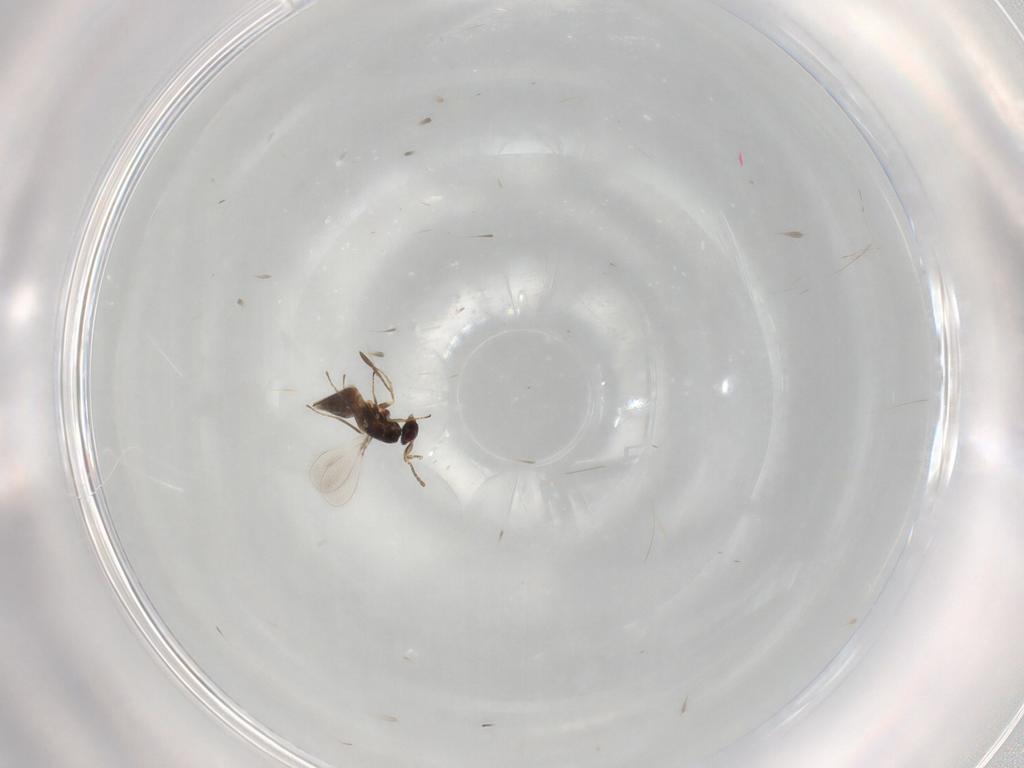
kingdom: Animalia
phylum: Arthropoda
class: Insecta
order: Hymenoptera
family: Mymaridae
